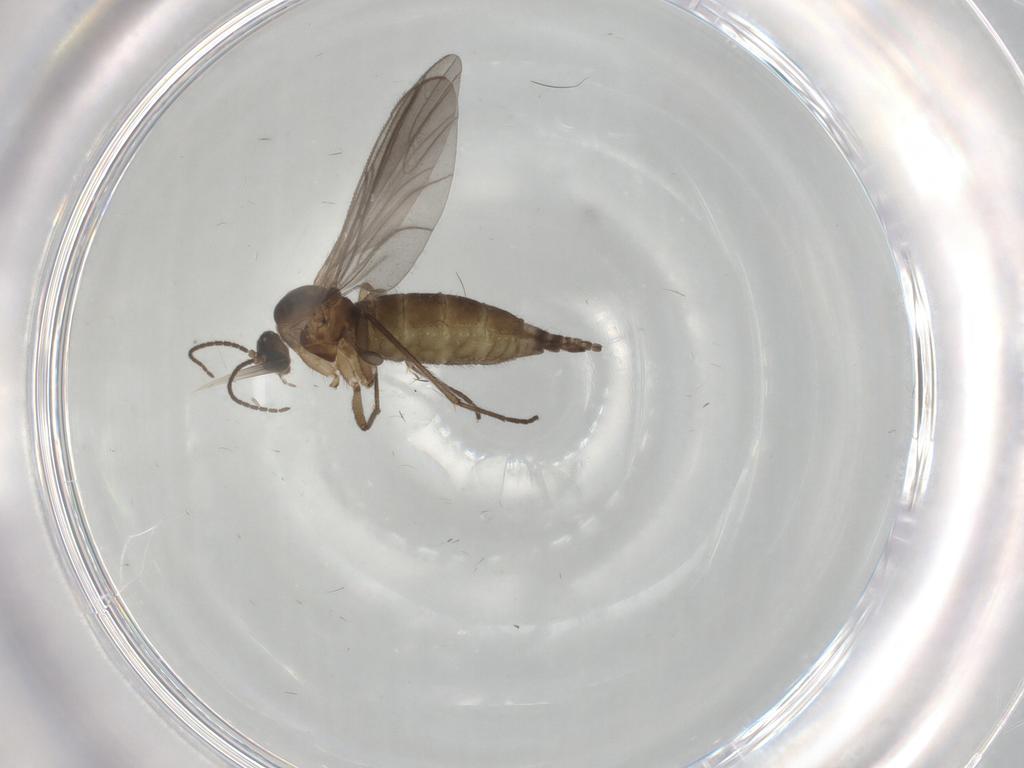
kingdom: Animalia
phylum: Arthropoda
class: Insecta
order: Diptera
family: Cecidomyiidae
